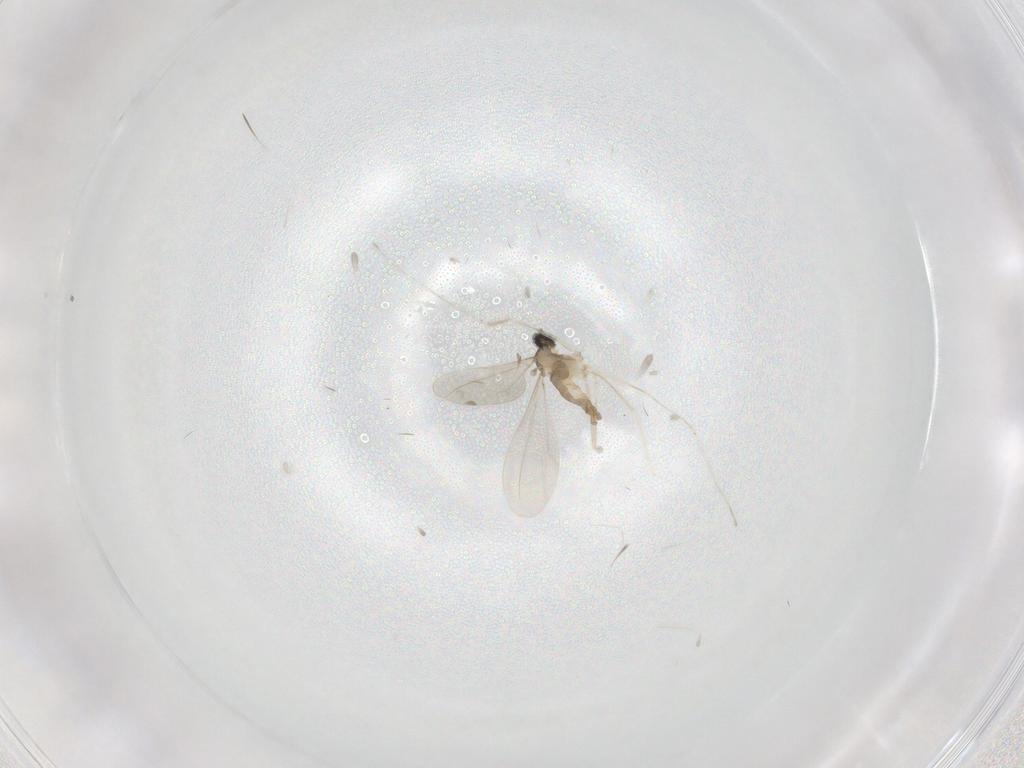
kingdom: Animalia
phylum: Arthropoda
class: Insecta
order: Diptera
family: Cecidomyiidae
